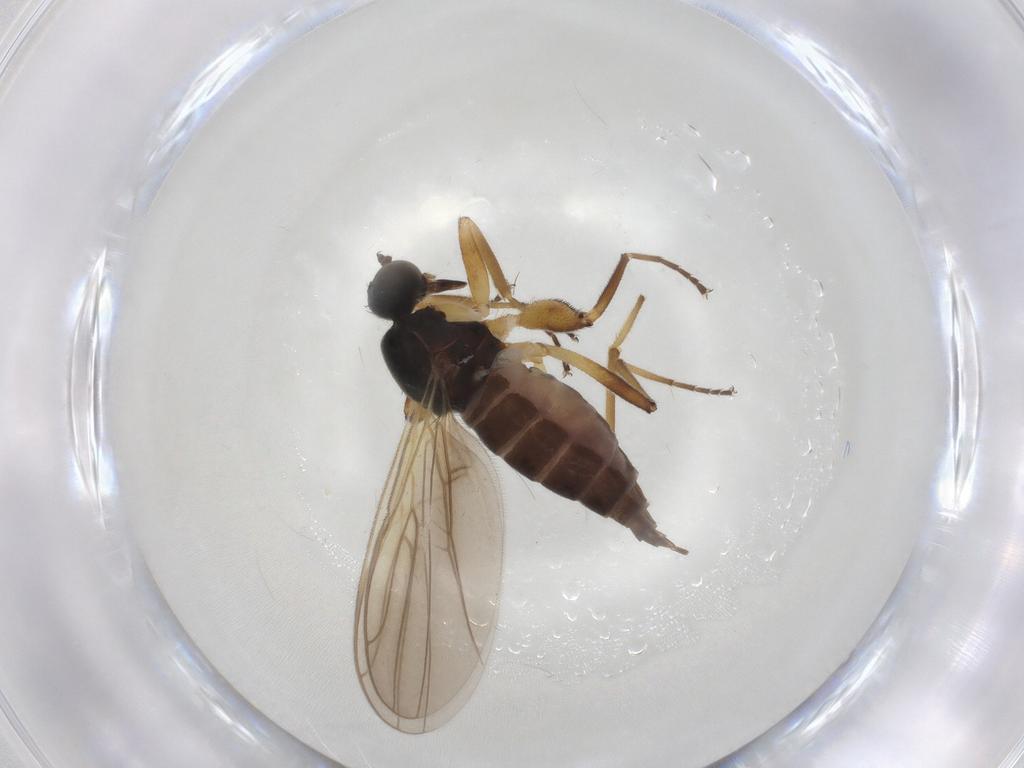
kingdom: Animalia
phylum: Arthropoda
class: Insecta
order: Diptera
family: Hybotidae
